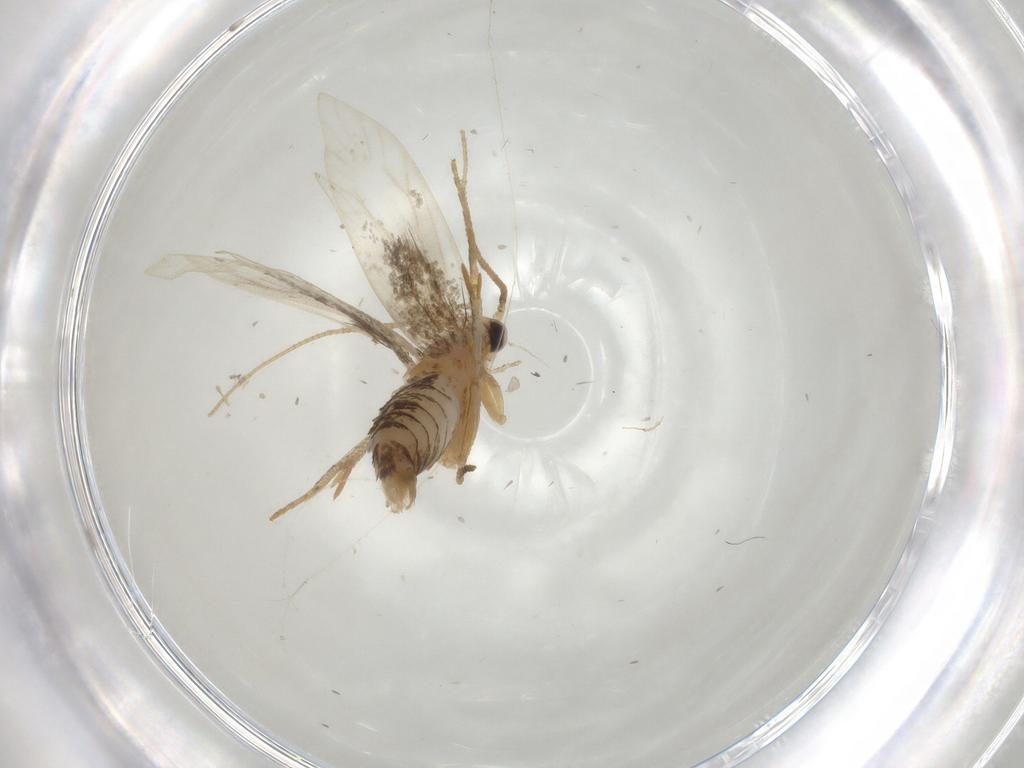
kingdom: Animalia
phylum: Arthropoda
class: Insecta
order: Lepidoptera
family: Tineidae
